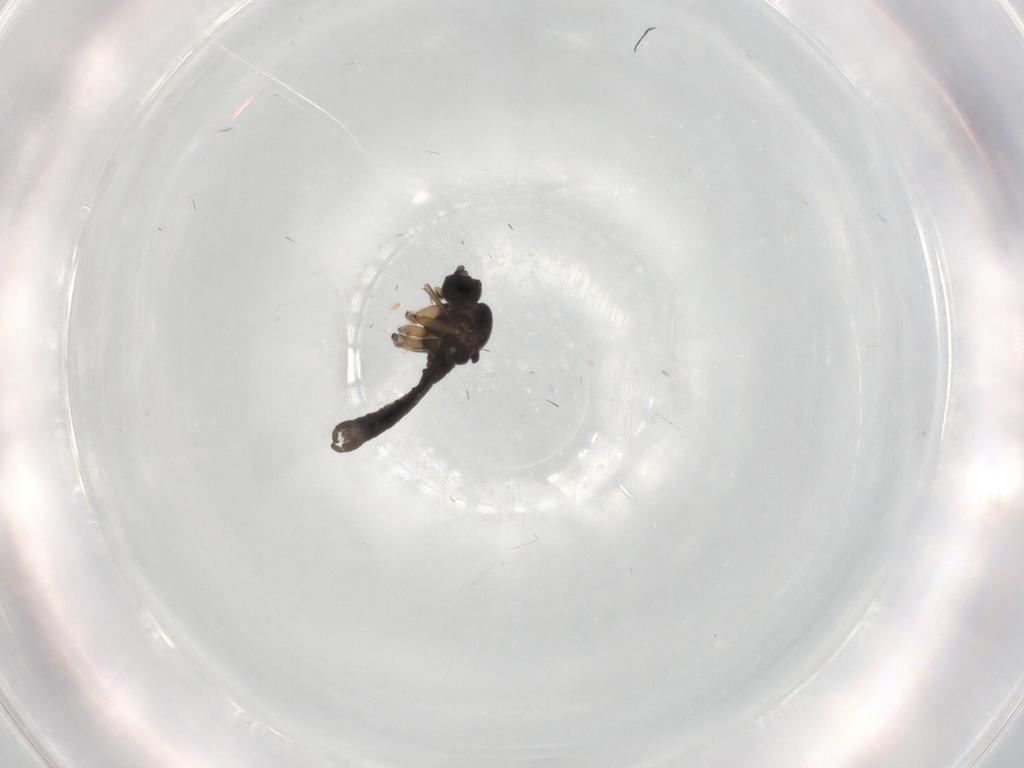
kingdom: Animalia
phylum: Arthropoda
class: Insecta
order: Diptera
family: Sciaridae
